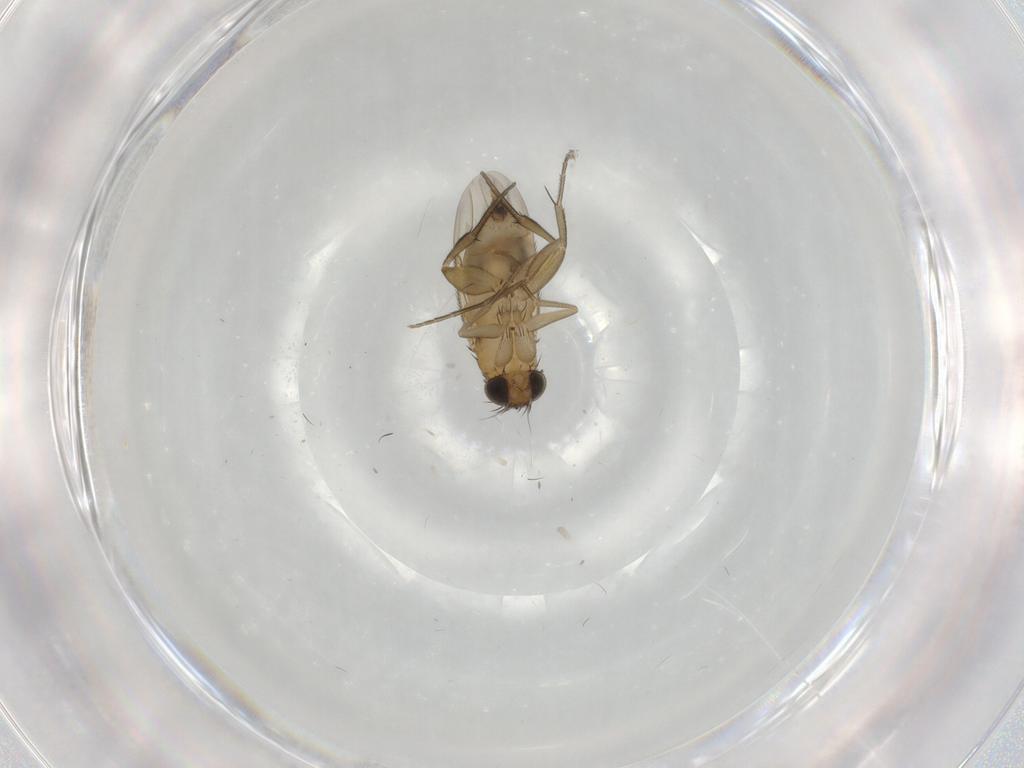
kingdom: Animalia
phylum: Arthropoda
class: Insecta
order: Diptera
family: Phoridae
